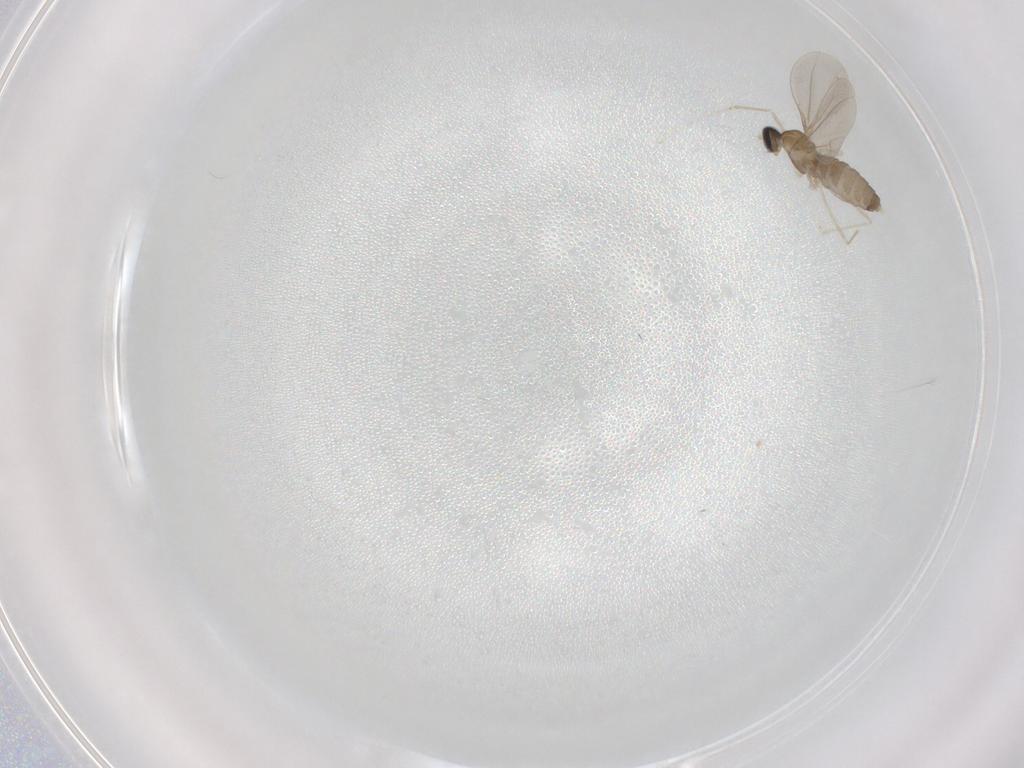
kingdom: Animalia
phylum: Arthropoda
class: Insecta
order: Diptera
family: Cecidomyiidae
